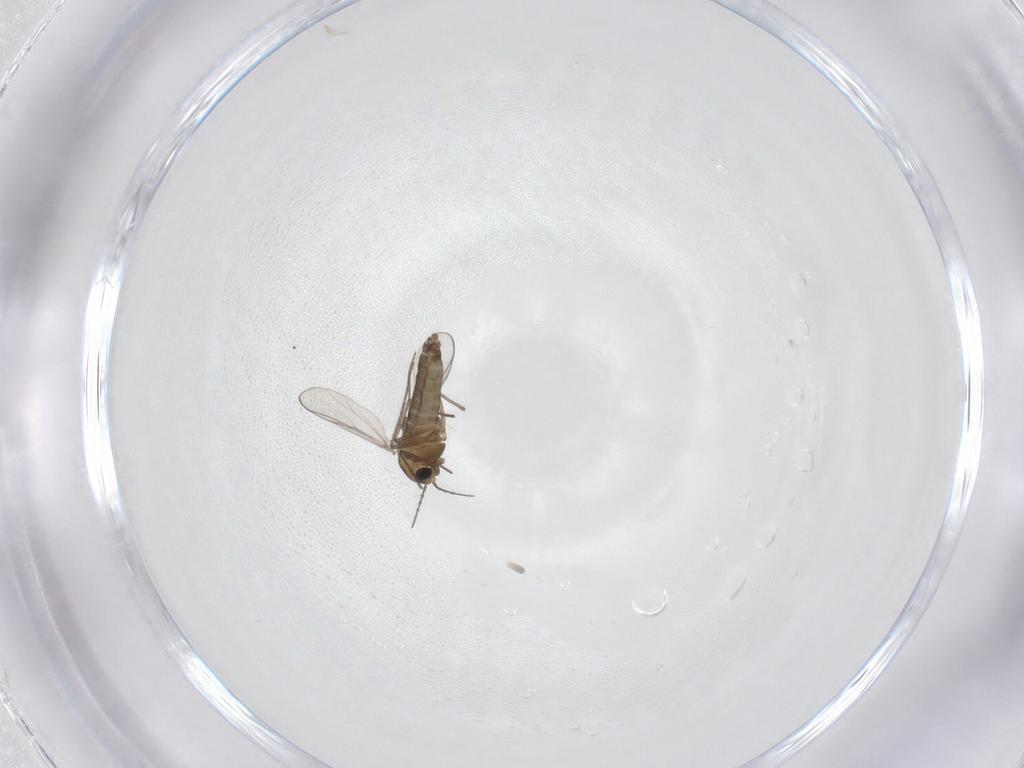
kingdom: Animalia
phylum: Arthropoda
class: Insecta
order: Diptera
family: Chironomidae
